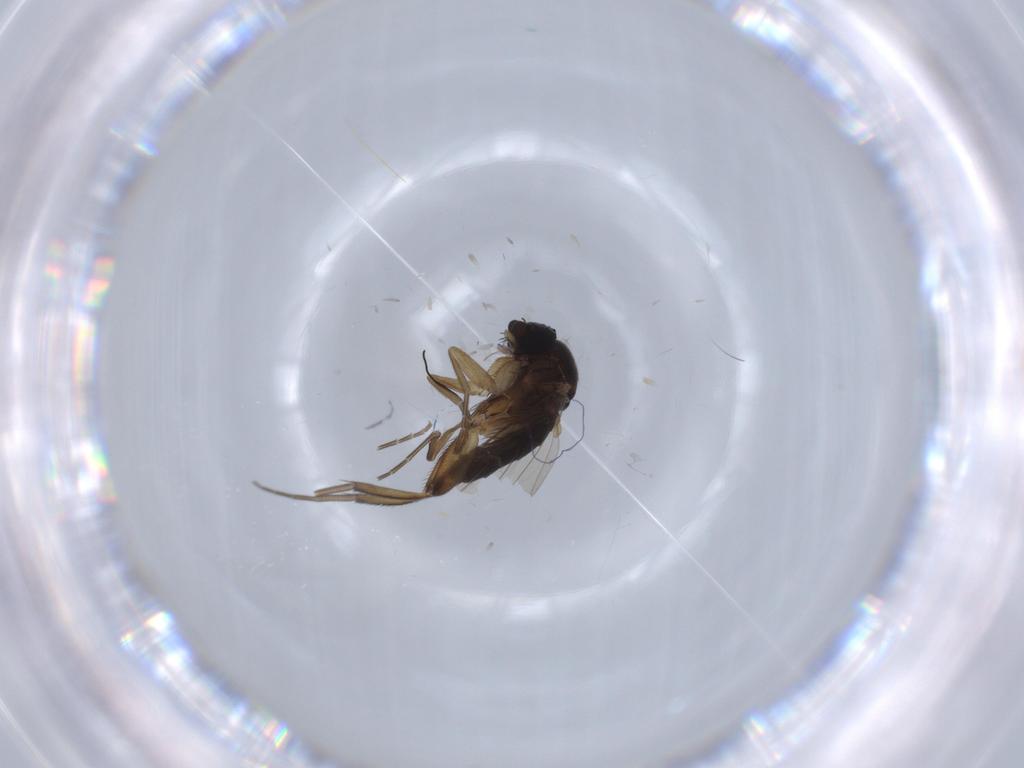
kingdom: Animalia
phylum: Arthropoda
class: Insecta
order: Diptera
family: Phoridae
